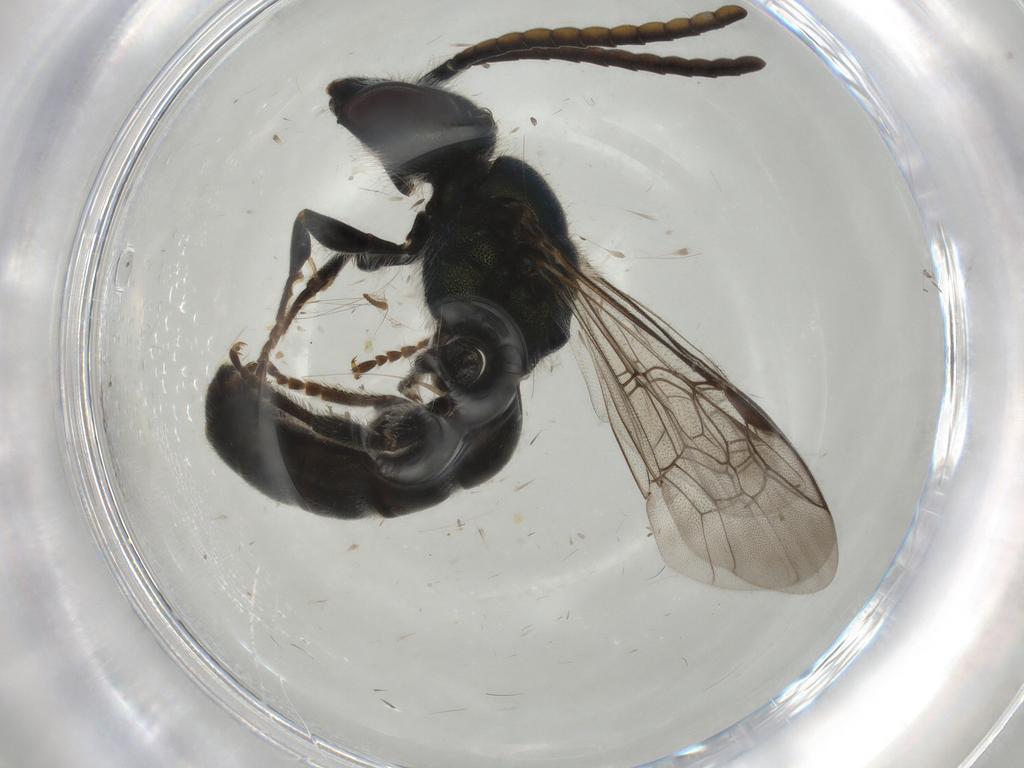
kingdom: Animalia
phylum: Arthropoda
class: Insecta
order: Hymenoptera
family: Halictidae
